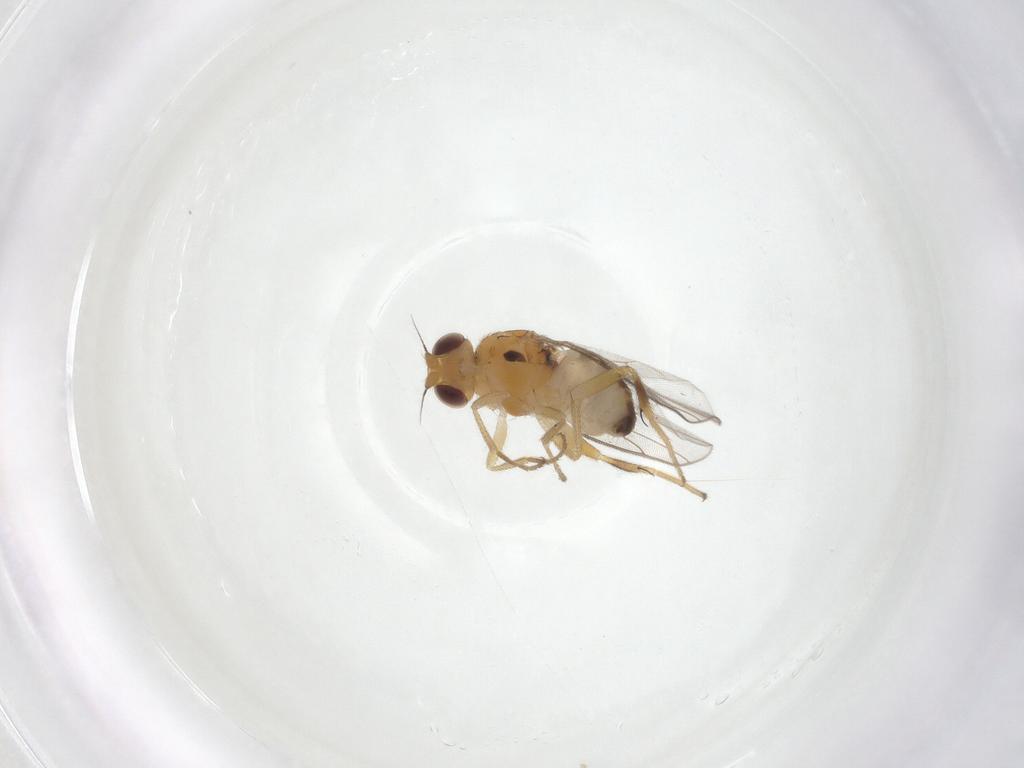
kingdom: Animalia
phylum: Arthropoda
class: Insecta
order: Diptera
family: Chloropidae
